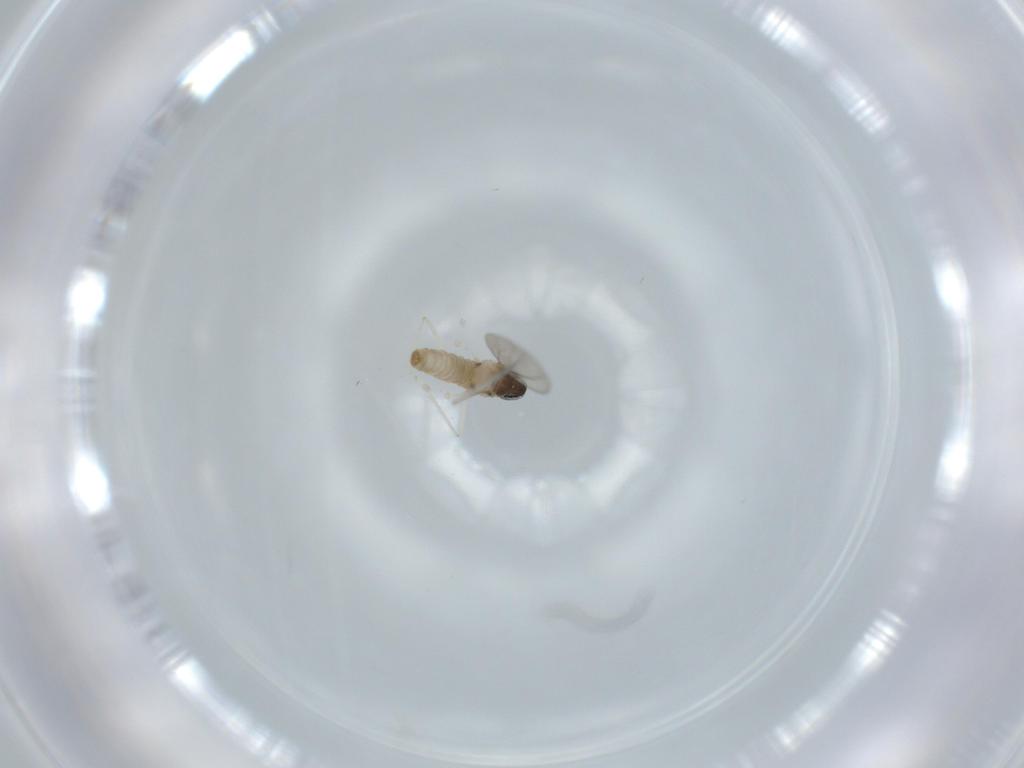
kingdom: Animalia
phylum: Arthropoda
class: Insecta
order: Diptera
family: Cecidomyiidae
